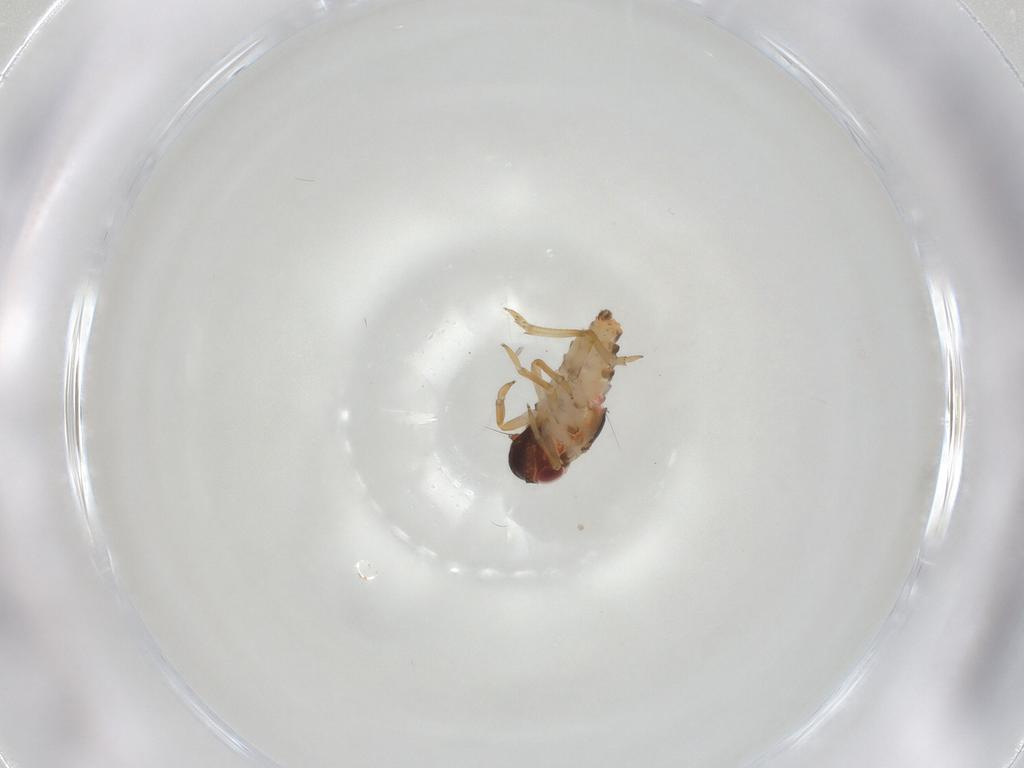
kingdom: Animalia
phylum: Arthropoda
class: Insecta
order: Hemiptera
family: Issidae
